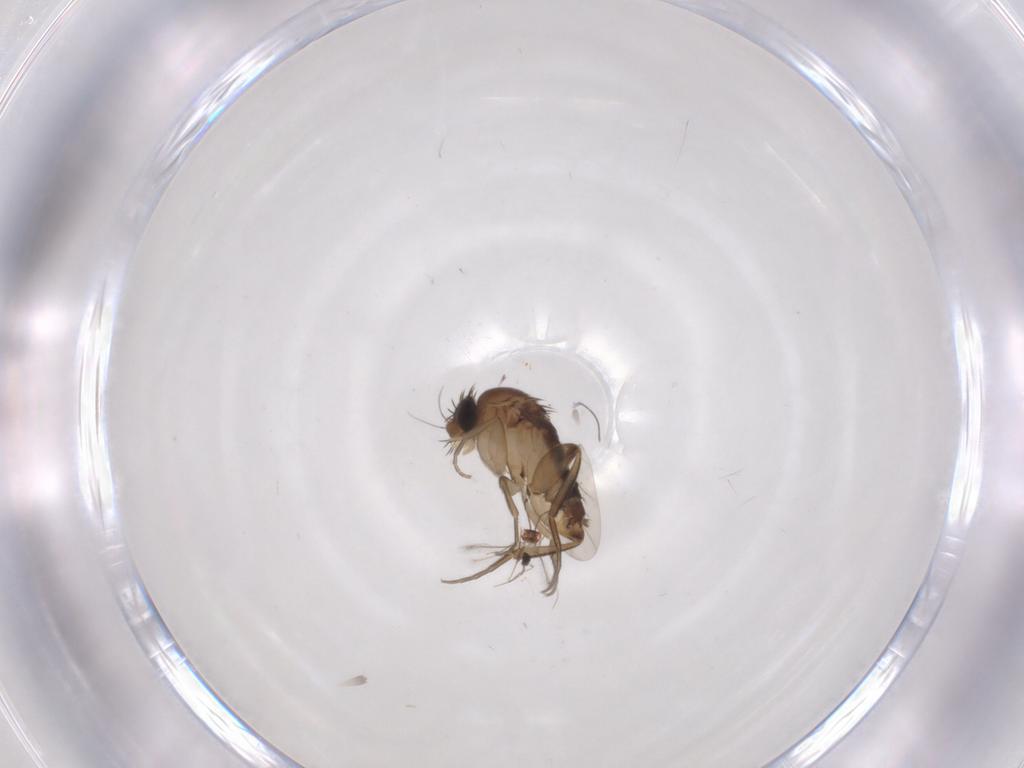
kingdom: Animalia
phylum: Arthropoda
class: Insecta
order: Diptera
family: Phoridae
